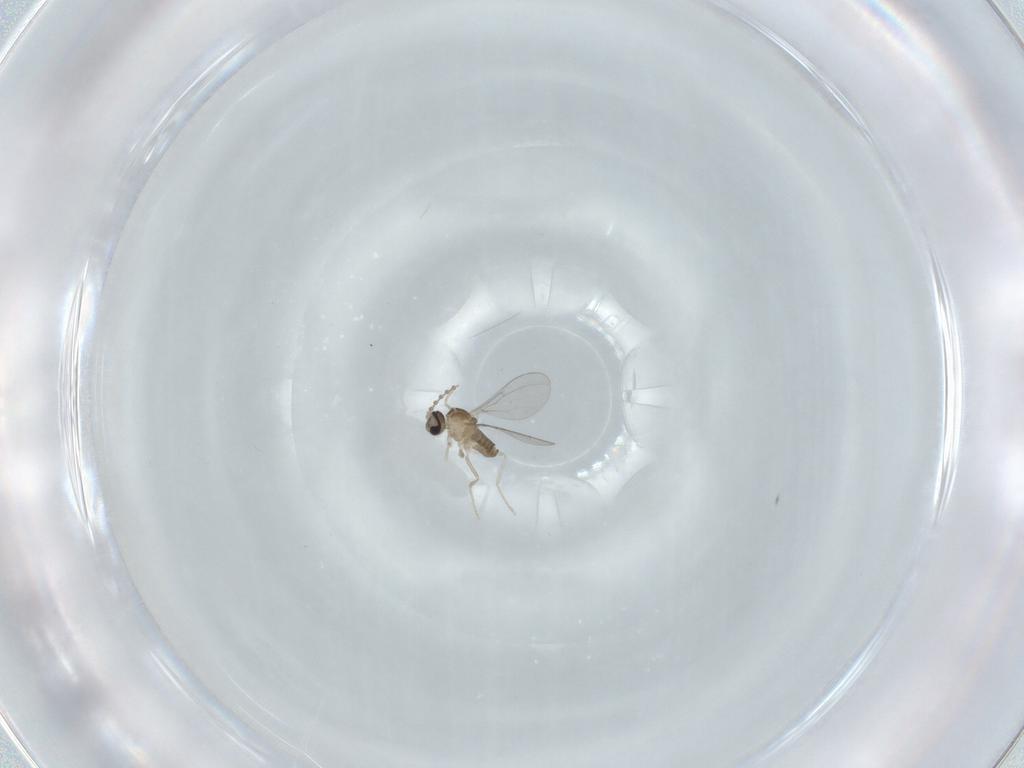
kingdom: Animalia
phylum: Arthropoda
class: Insecta
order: Diptera
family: Cecidomyiidae
